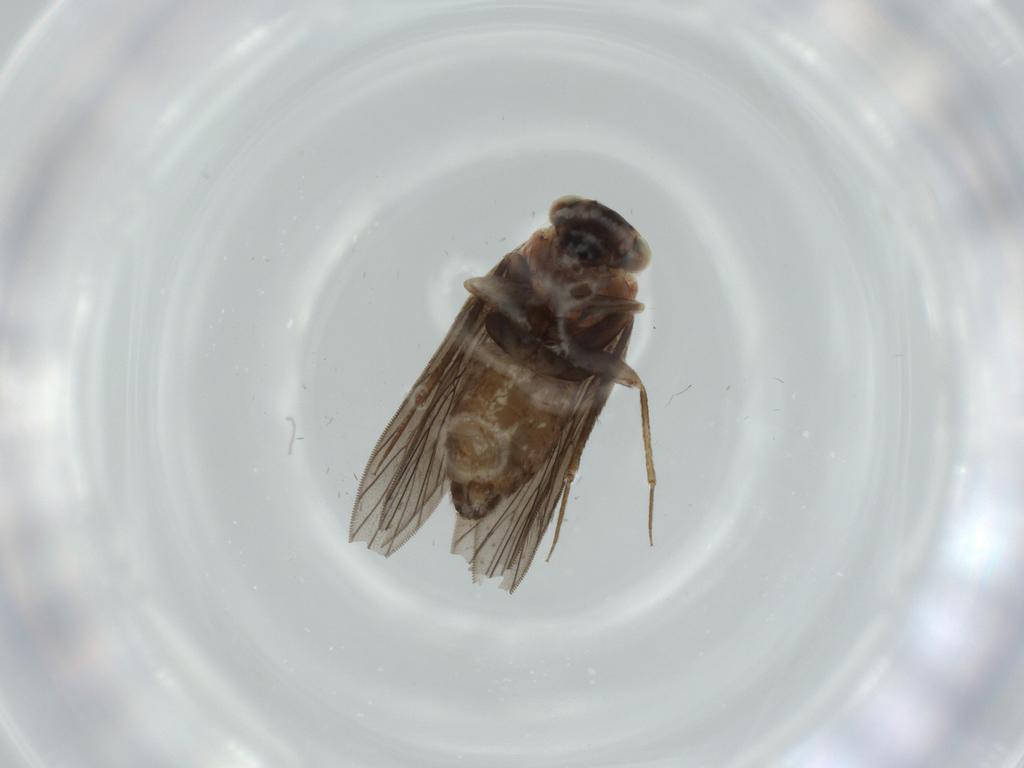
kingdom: Animalia
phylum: Arthropoda
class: Insecta
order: Psocodea
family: Lepidopsocidae
